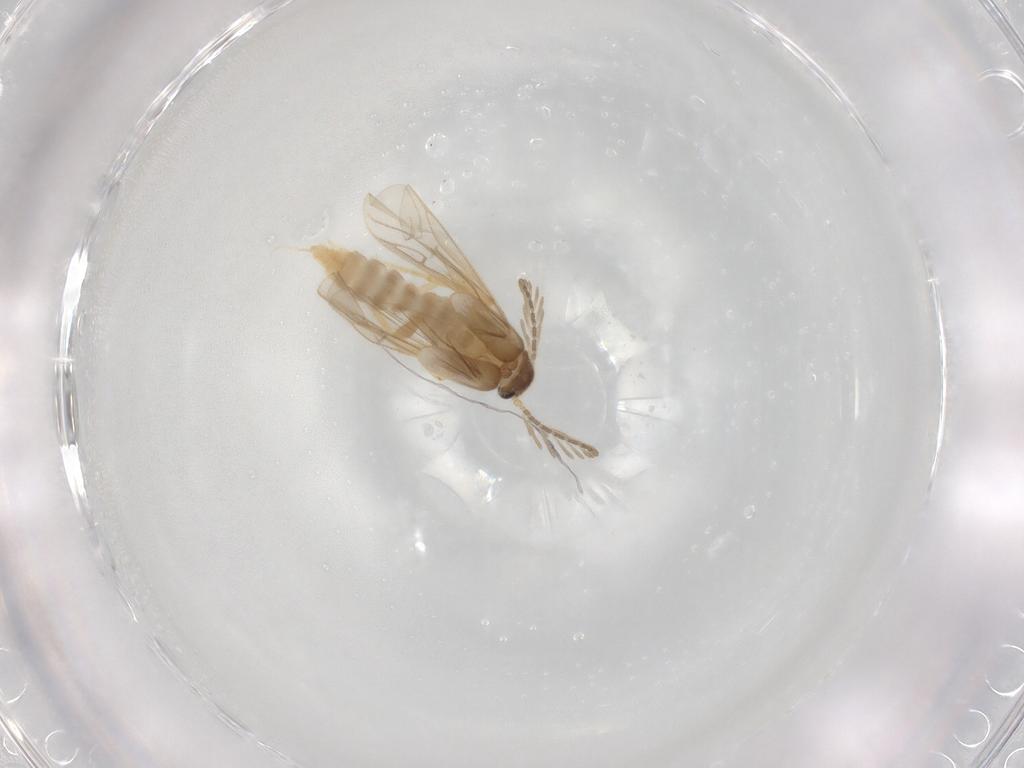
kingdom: Animalia
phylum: Arthropoda
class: Insecta
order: Coleoptera
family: Phengodidae
